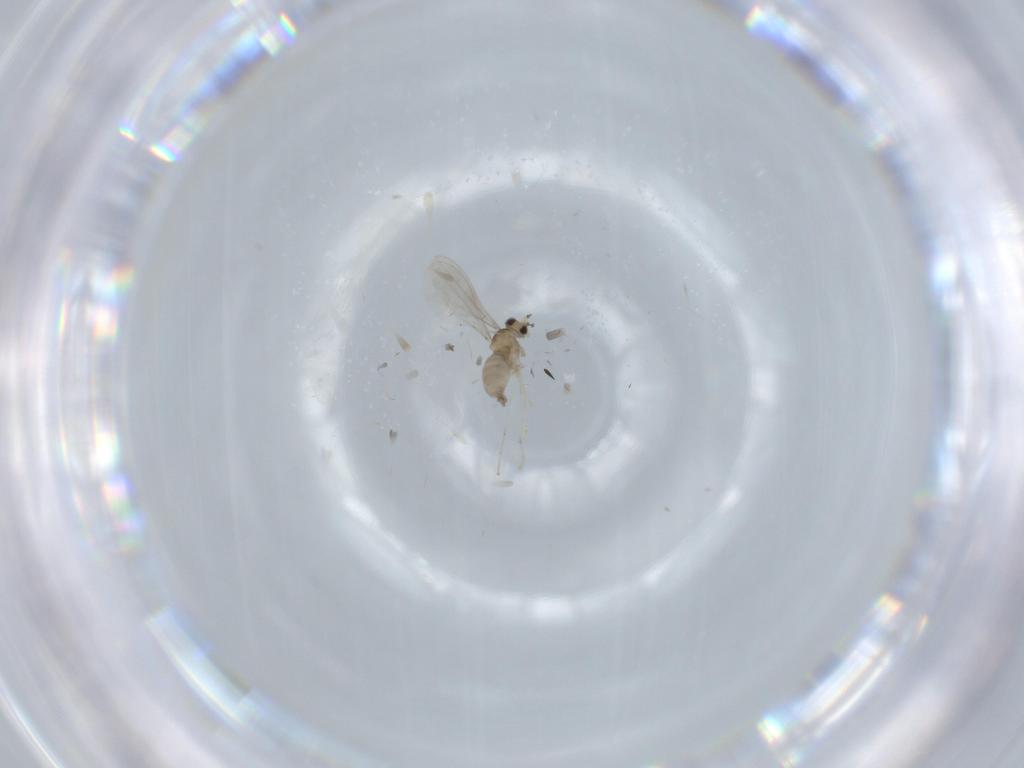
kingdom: Animalia
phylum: Arthropoda
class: Insecta
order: Diptera
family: Cecidomyiidae
